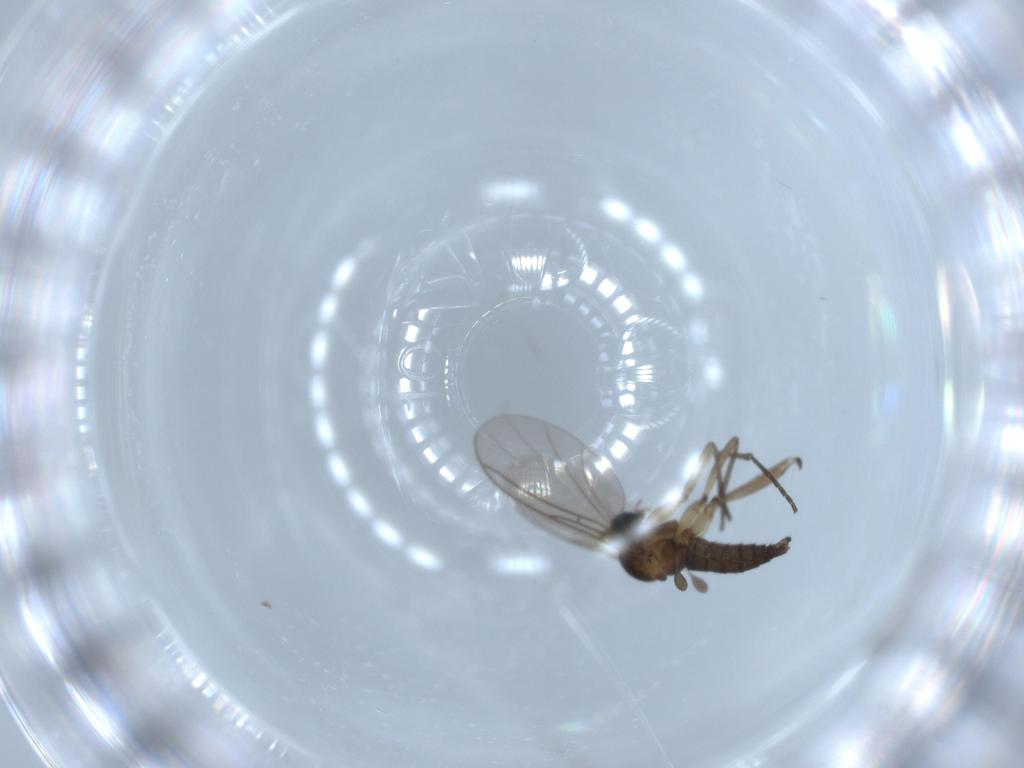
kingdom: Animalia
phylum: Arthropoda
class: Insecta
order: Diptera
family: Sciaridae
